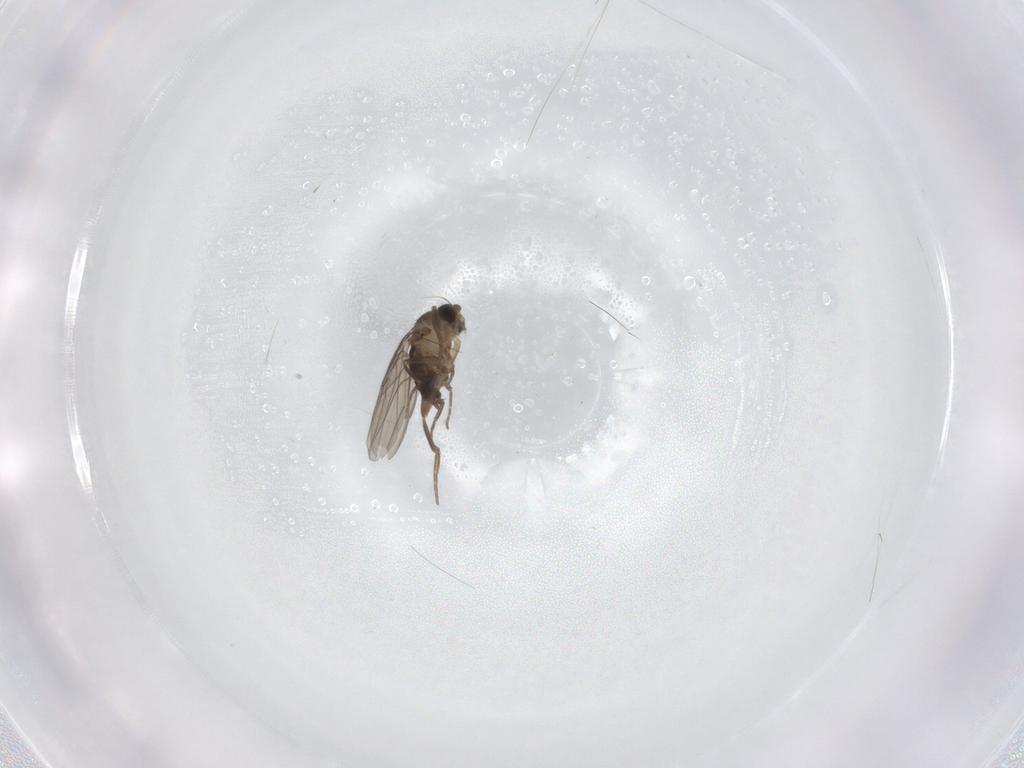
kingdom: Animalia
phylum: Arthropoda
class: Insecta
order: Diptera
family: Phoridae
